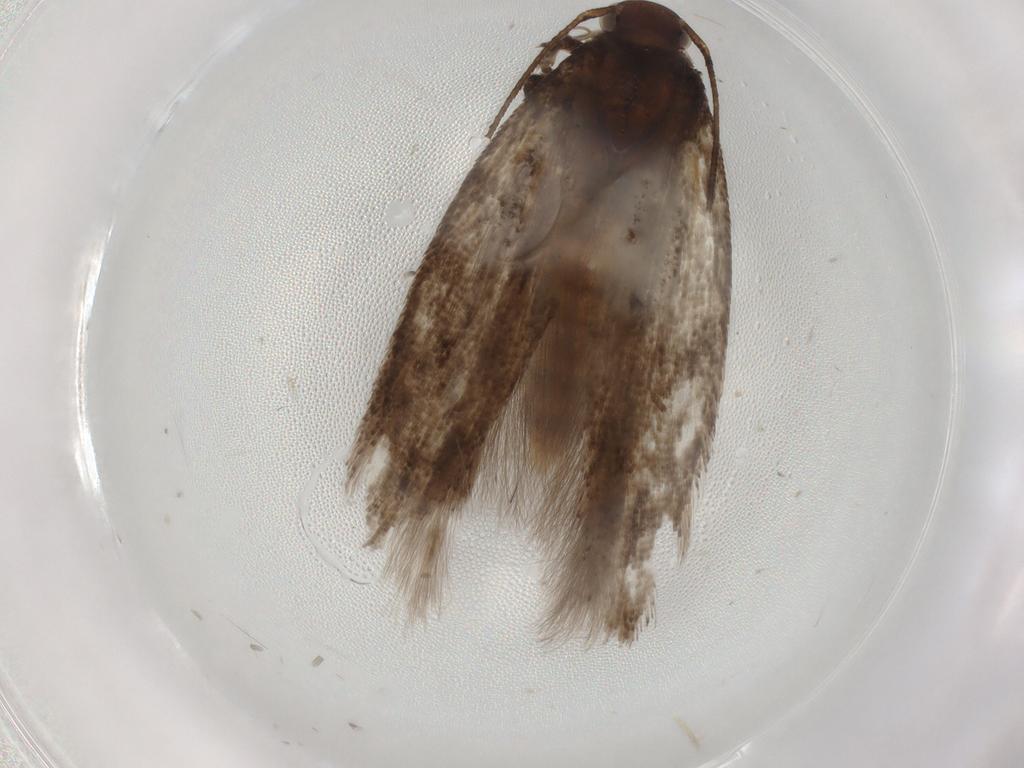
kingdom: Animalia
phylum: Arthropoda
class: Insecta
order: Lepidoptera
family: Gelechiidae
